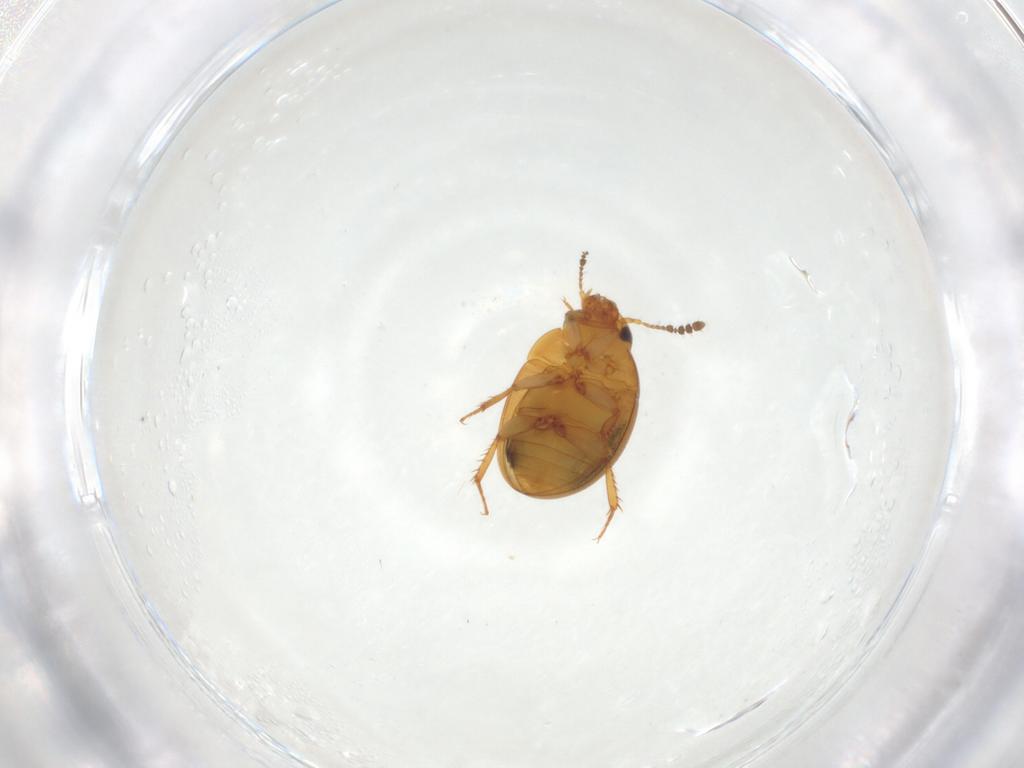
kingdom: Animalia
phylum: Arthropoda
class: Insecta
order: Coleoptera
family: Leiodidae
